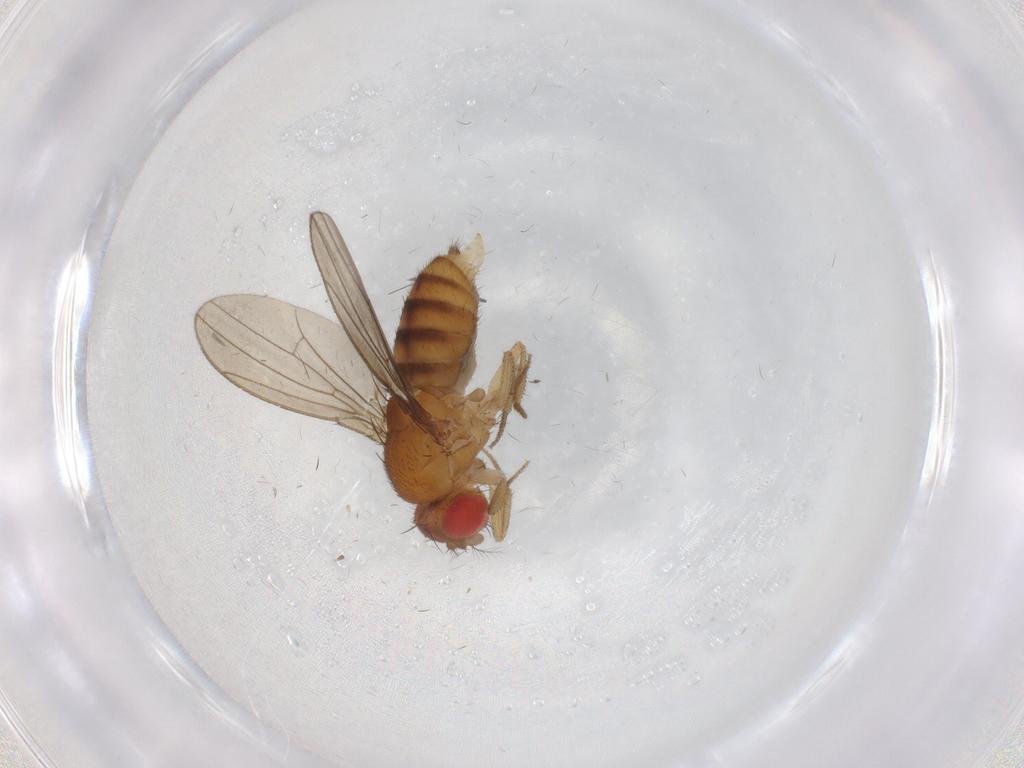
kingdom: Animalia
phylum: Arthropoda
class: Insecta
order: Diptera
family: Drosophilidae
